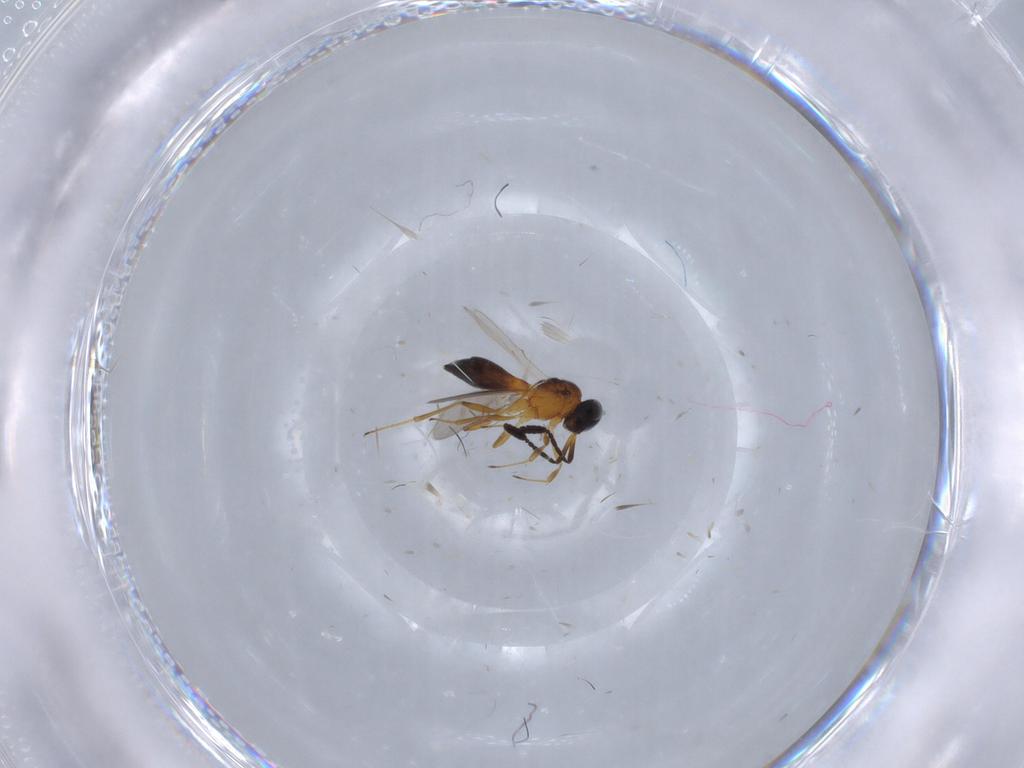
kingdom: Animalia
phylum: Arthropoda
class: Insecta
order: Hymenoptera
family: Scelionidae
